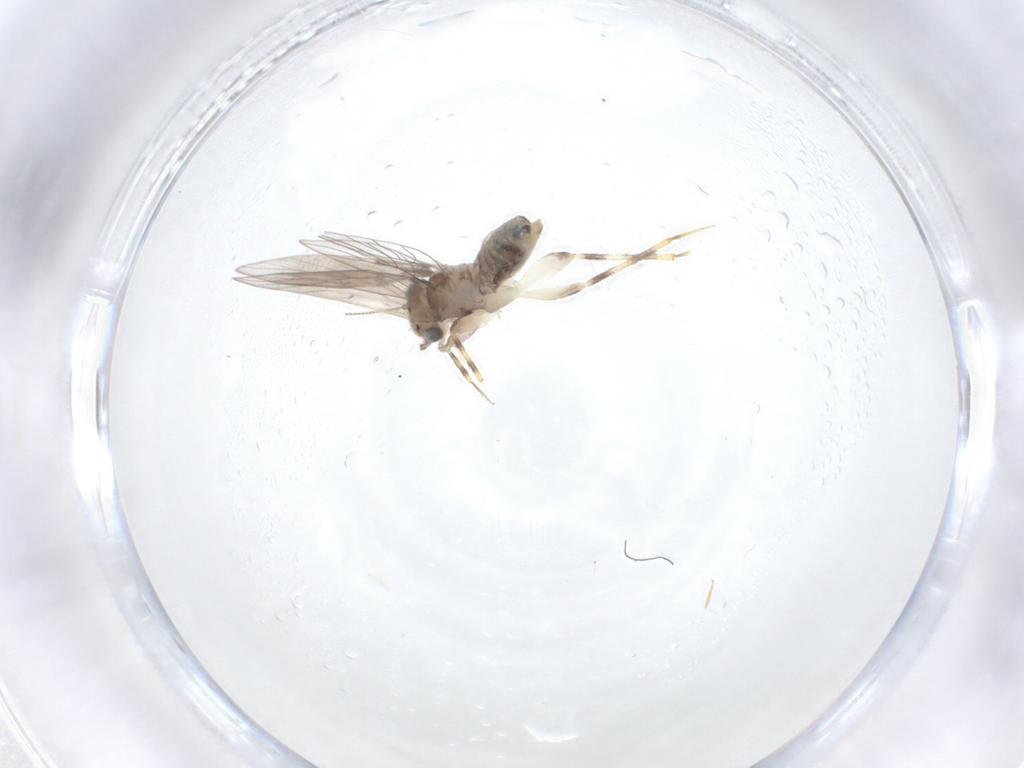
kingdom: Animalia
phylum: Arthropoda
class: Insecta
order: Psocodea
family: Lepidopsocidae
